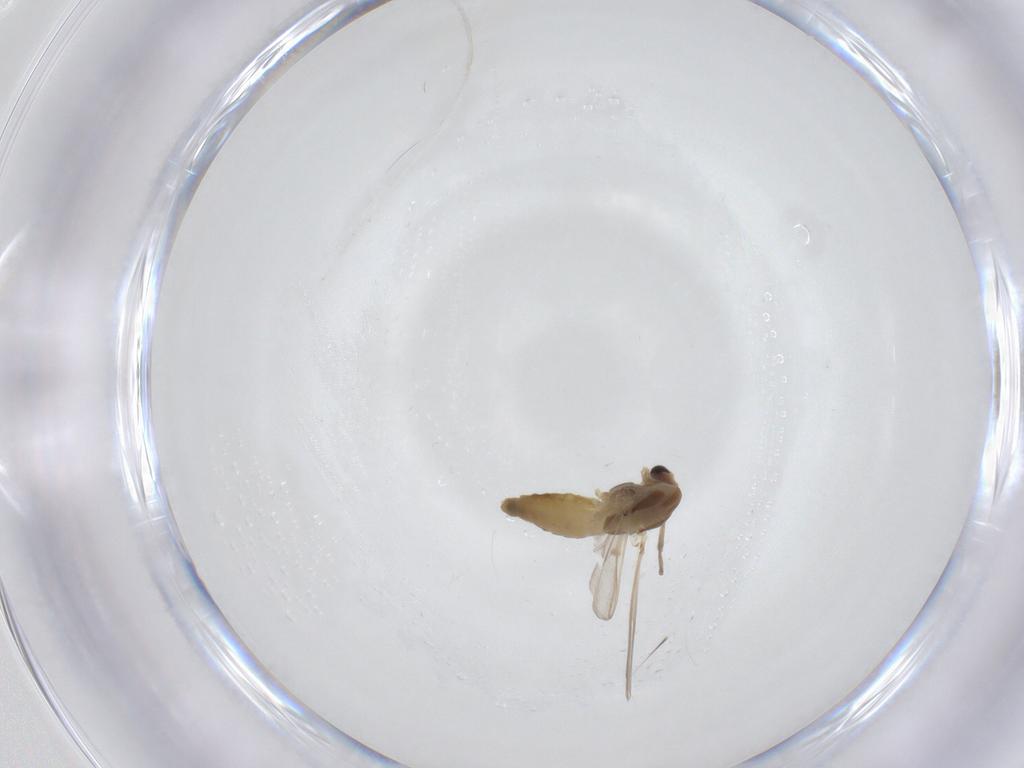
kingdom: Animalia
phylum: Arthropoda
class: Insecta
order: Diptera
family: Chironomidae
